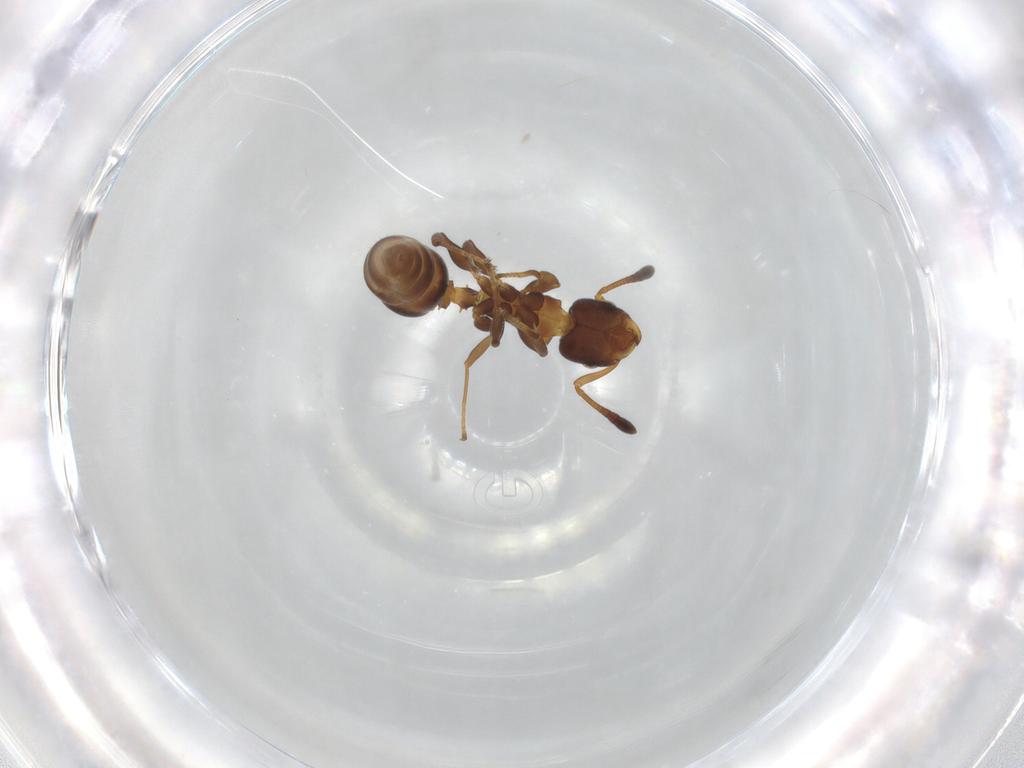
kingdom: Animalia
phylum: Arthropoda
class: Insecta
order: Hymenoptera
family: Formicidae
